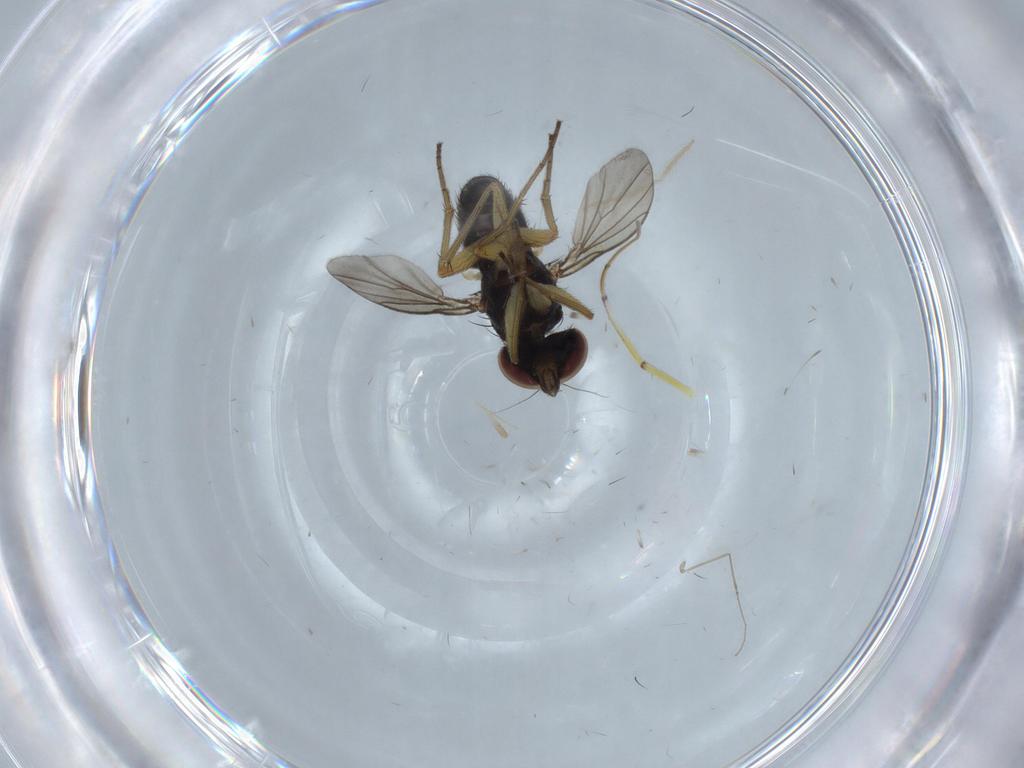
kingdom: Animalia
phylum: Arthropoda
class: Insecta
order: Diptera
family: Dolichopodidae
